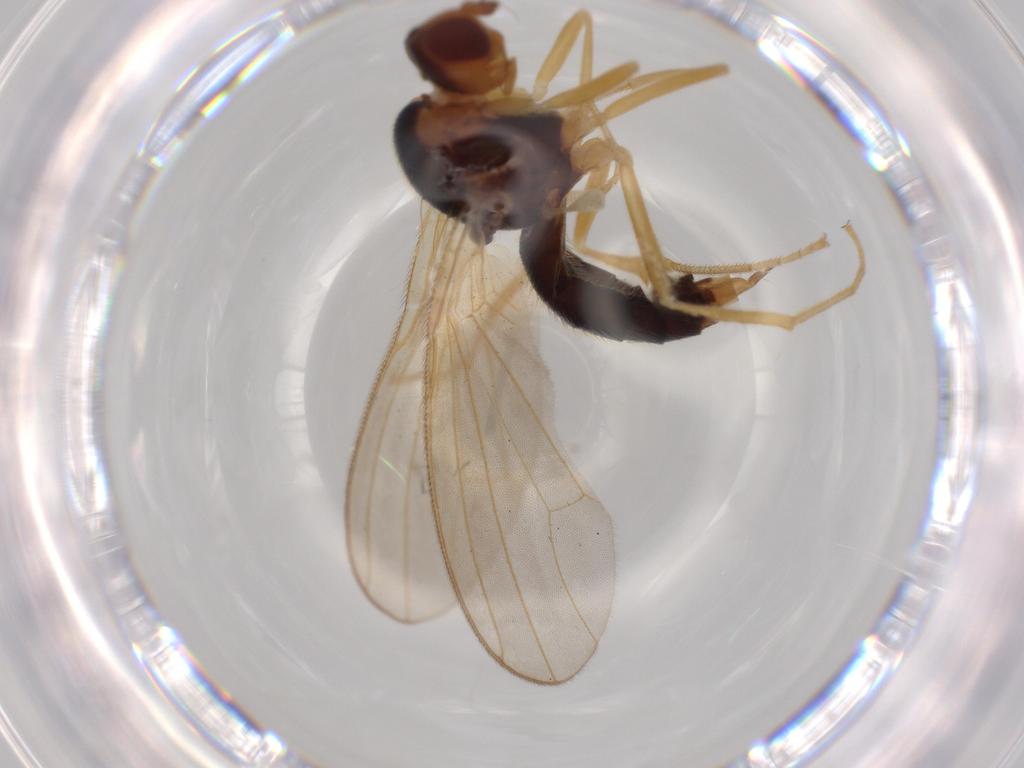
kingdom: Animalia
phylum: Arthropoda
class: Insecta
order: Diptera
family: Psilidae
